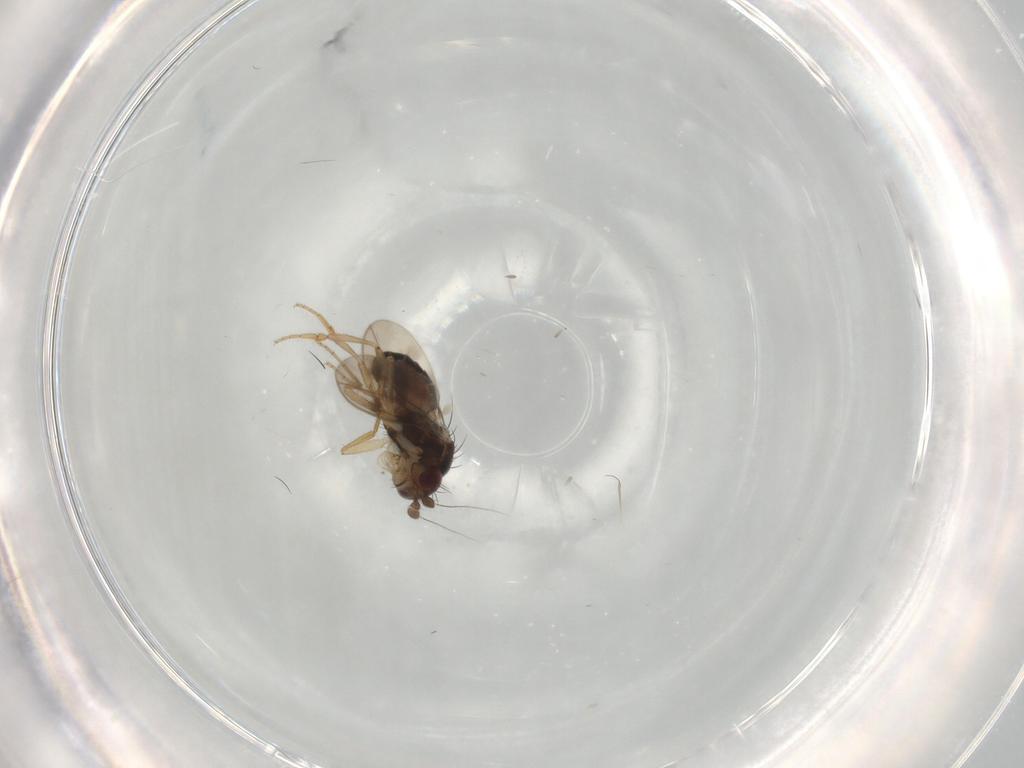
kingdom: Animalia
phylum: Arthropoda
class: Insecta
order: Diptera
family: Sphaeroceridae
